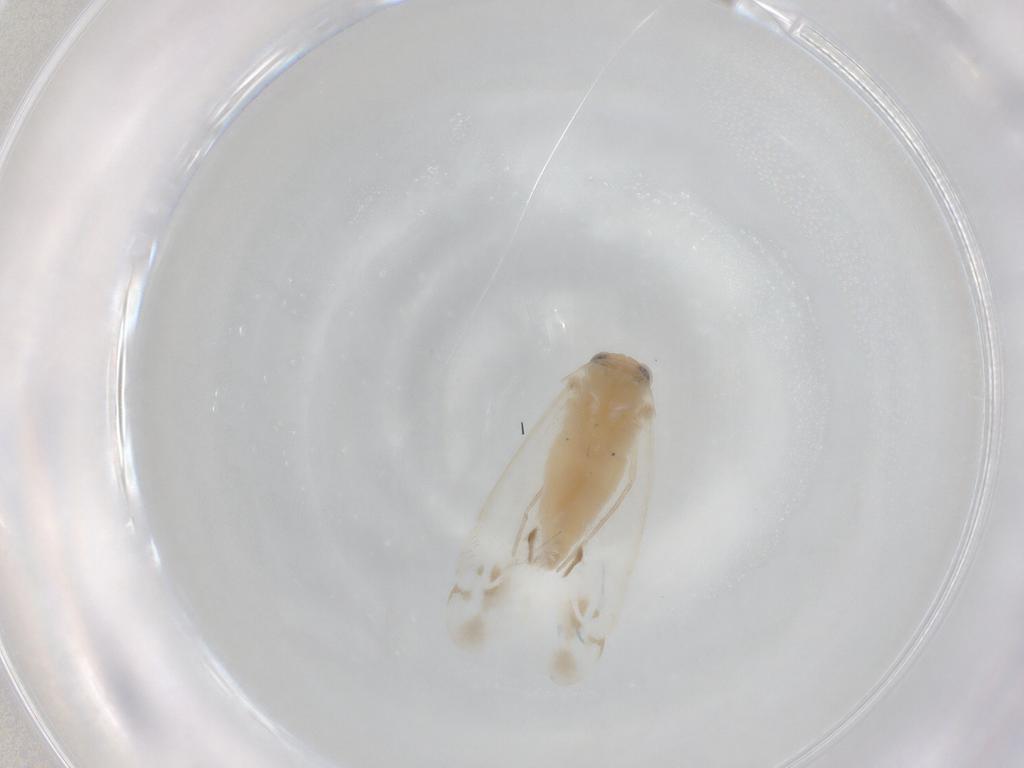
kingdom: Animalia
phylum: Arthropoda
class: Insecta
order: Hemiptera
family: Miridae
